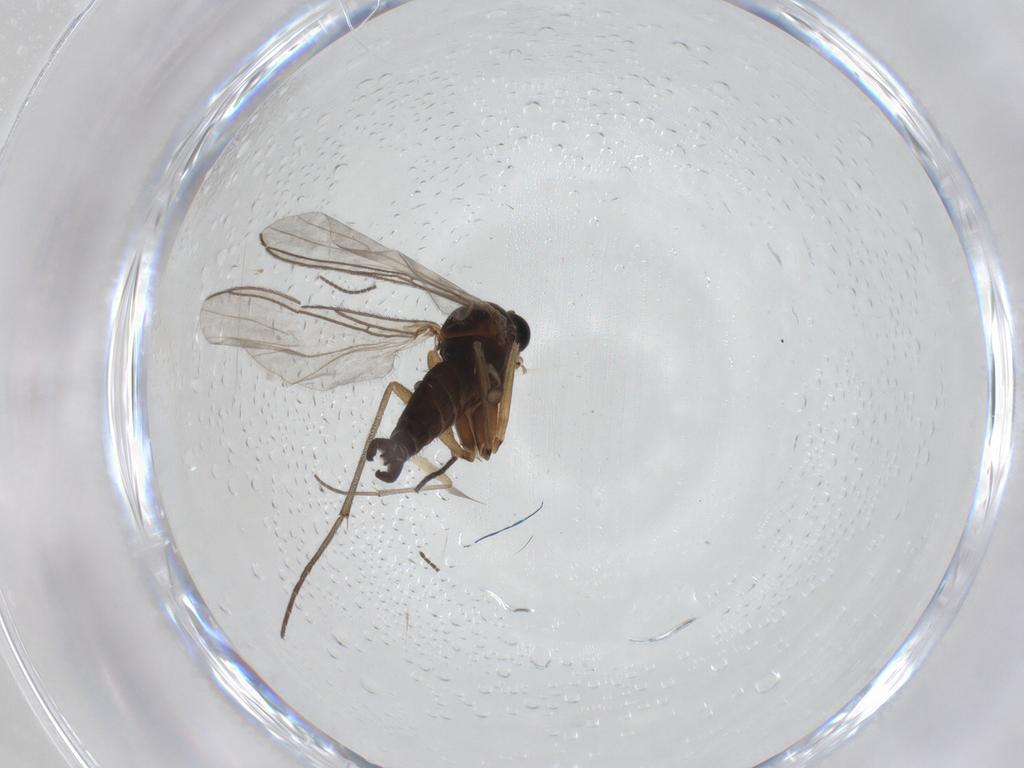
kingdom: Animalia
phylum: Arthropoda
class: Insecta
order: Diptera
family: Sciaridae
